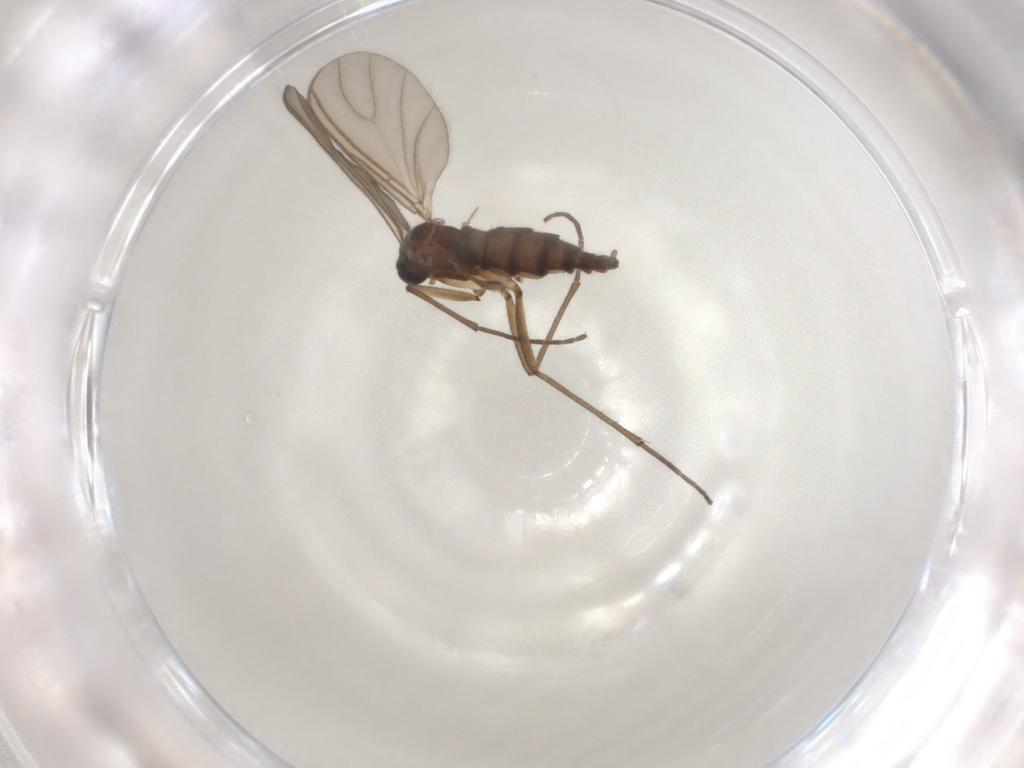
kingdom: Animalia
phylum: Arthropoda
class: Insecta
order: Diptera
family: Sciaridae
